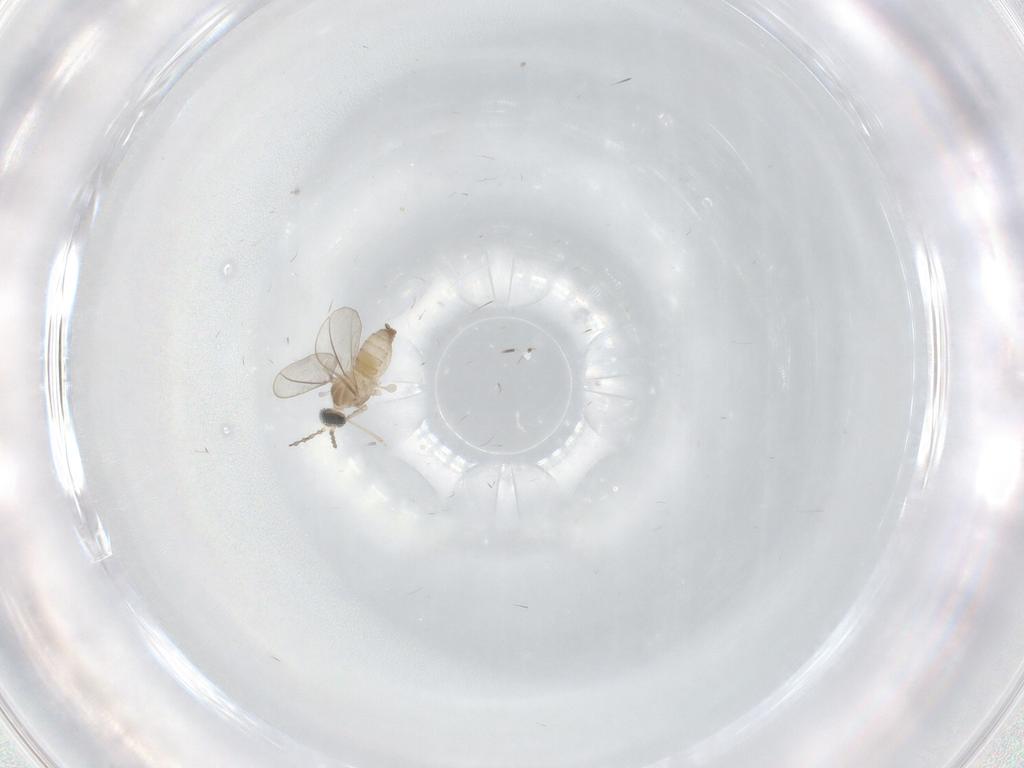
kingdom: Animalia
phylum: Arthropoda
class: Insecta
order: Diptera
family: Cecidomyiidae
